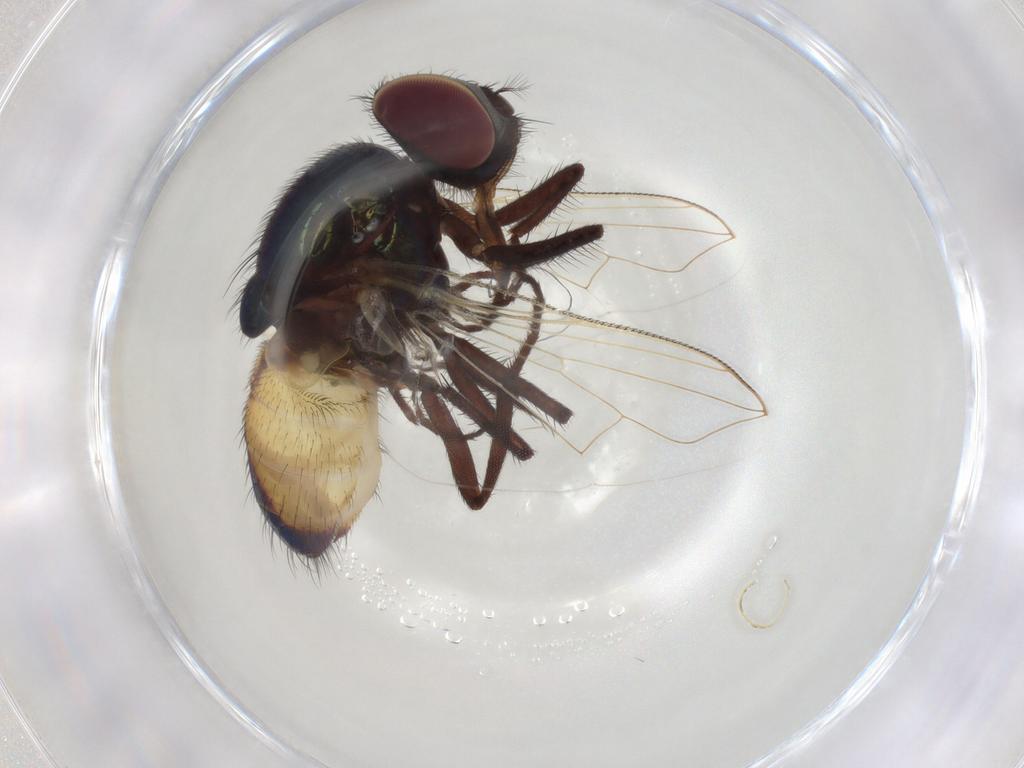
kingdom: Animalia
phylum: Arthropoda
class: Insecta
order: Diptera
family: Muscidae
